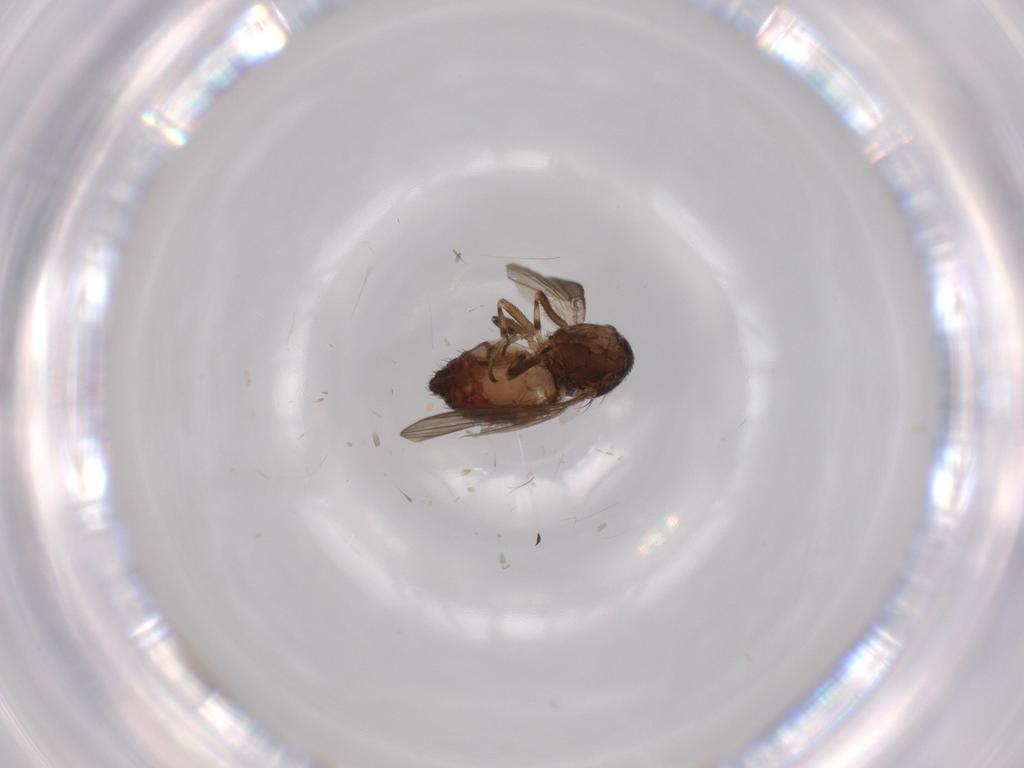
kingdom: Animalia
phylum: Arthropoda
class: Insecta
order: Diptera
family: Heleomyzidae
